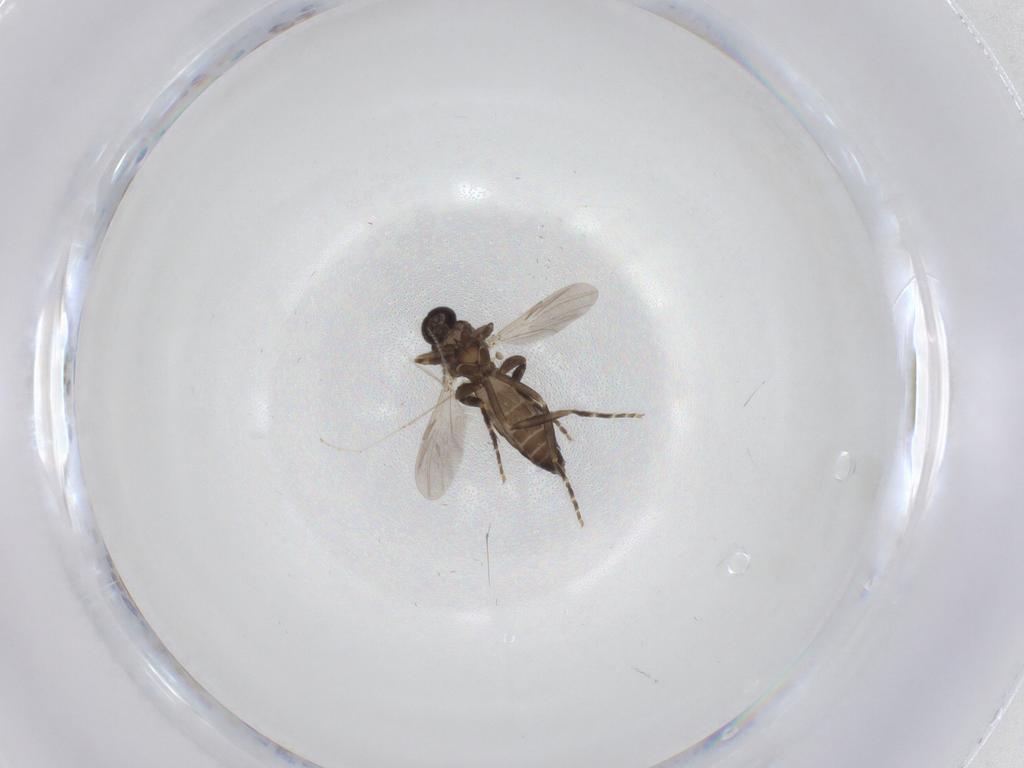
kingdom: Animalia
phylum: Arthropoda
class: Insecta
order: Diptera
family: Ceratopogonidae
